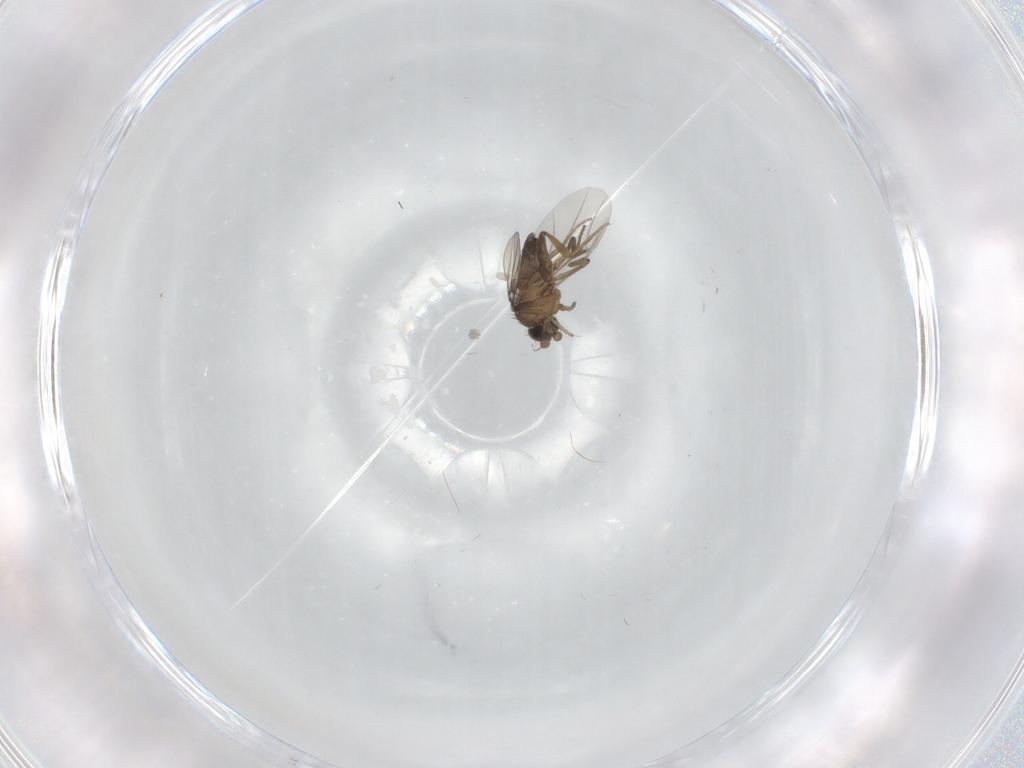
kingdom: Animalia
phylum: Arthropoda
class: Insecta
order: Diptera
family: Phoridae
